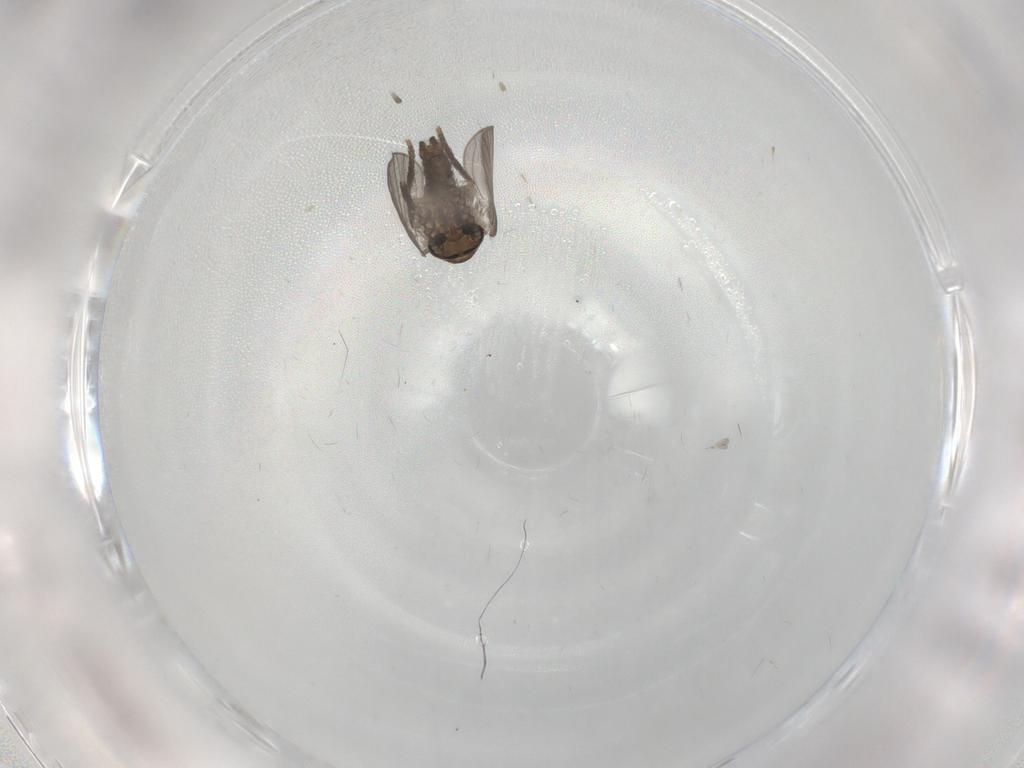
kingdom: Animalia
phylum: Arthropoda
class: Insecta
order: Diptera
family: Psychodidae
